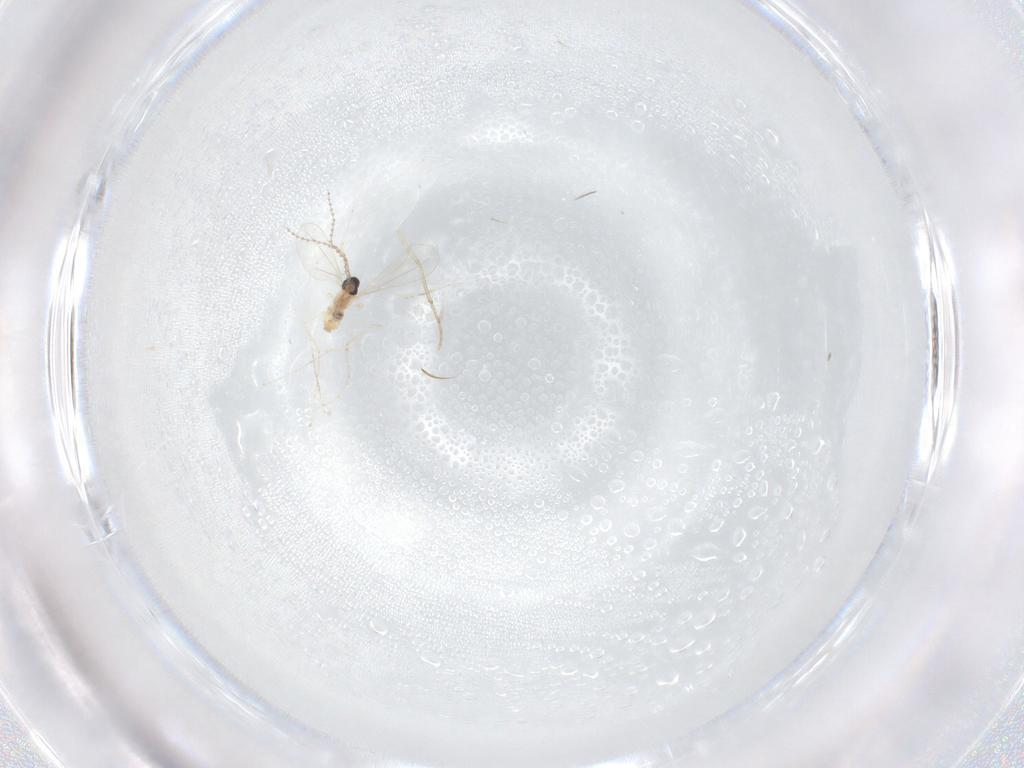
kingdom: Animalia
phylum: Arthropoda
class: Insecta
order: Diptera
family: Cecidomyiidae
